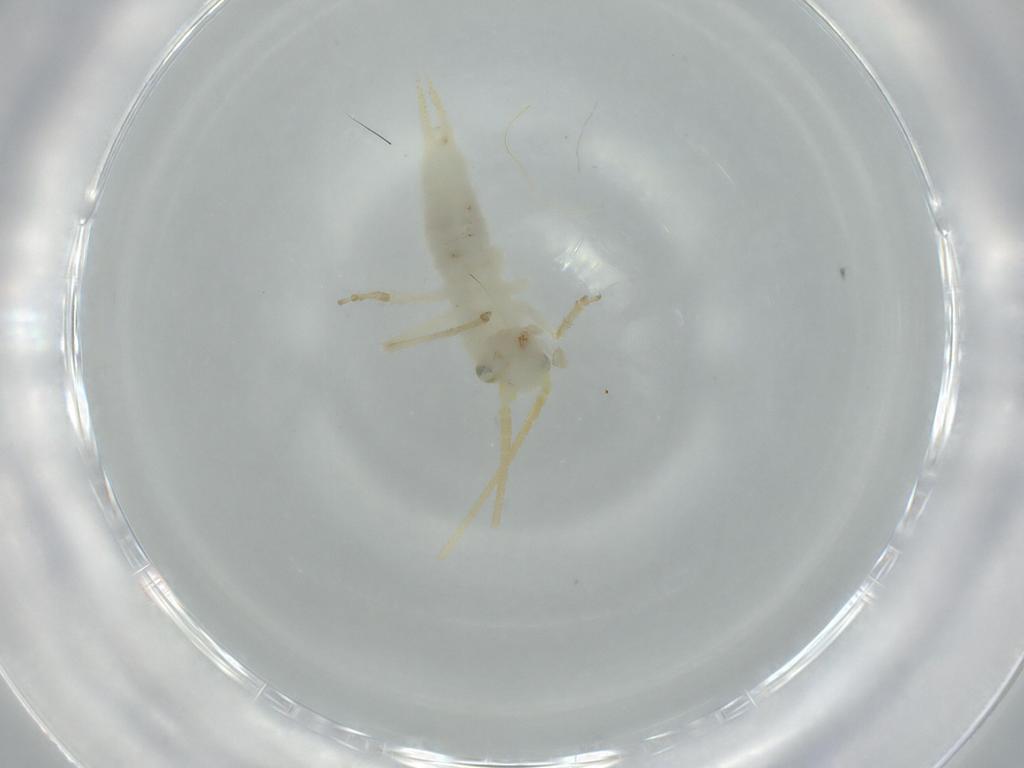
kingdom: Animalia
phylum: Arthropoda
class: Insecta
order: Orthoptera
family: Trigonidiidae
